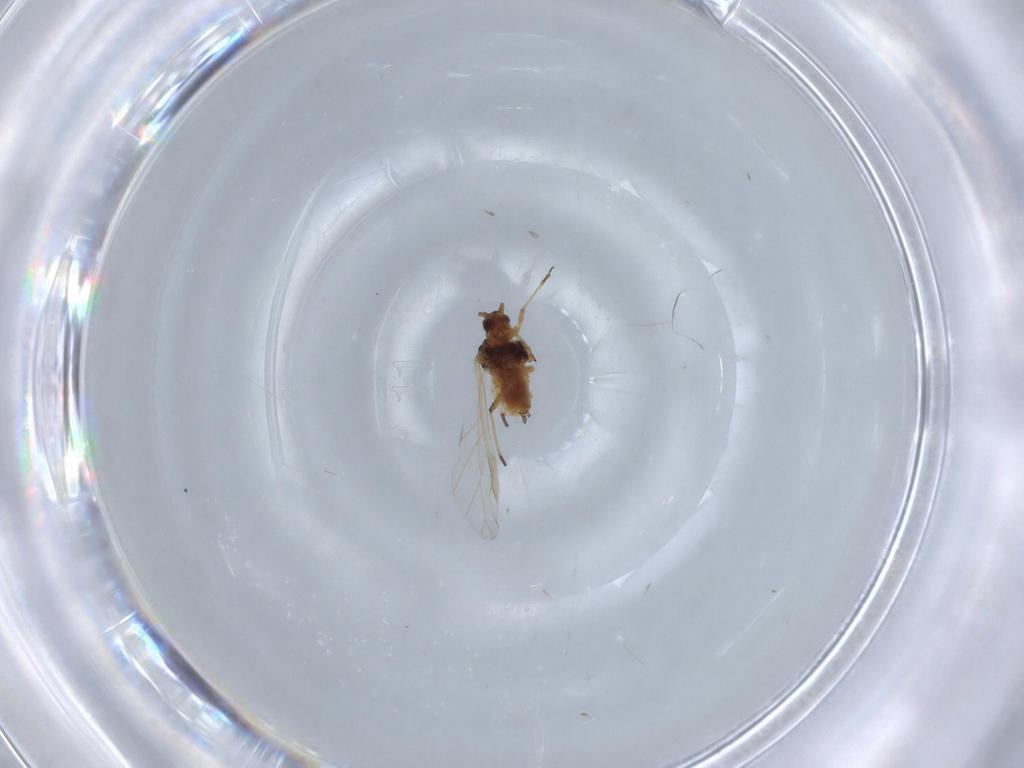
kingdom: Animalia
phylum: Arthropoda
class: Insecta
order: Hemiptera
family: Aphididae
